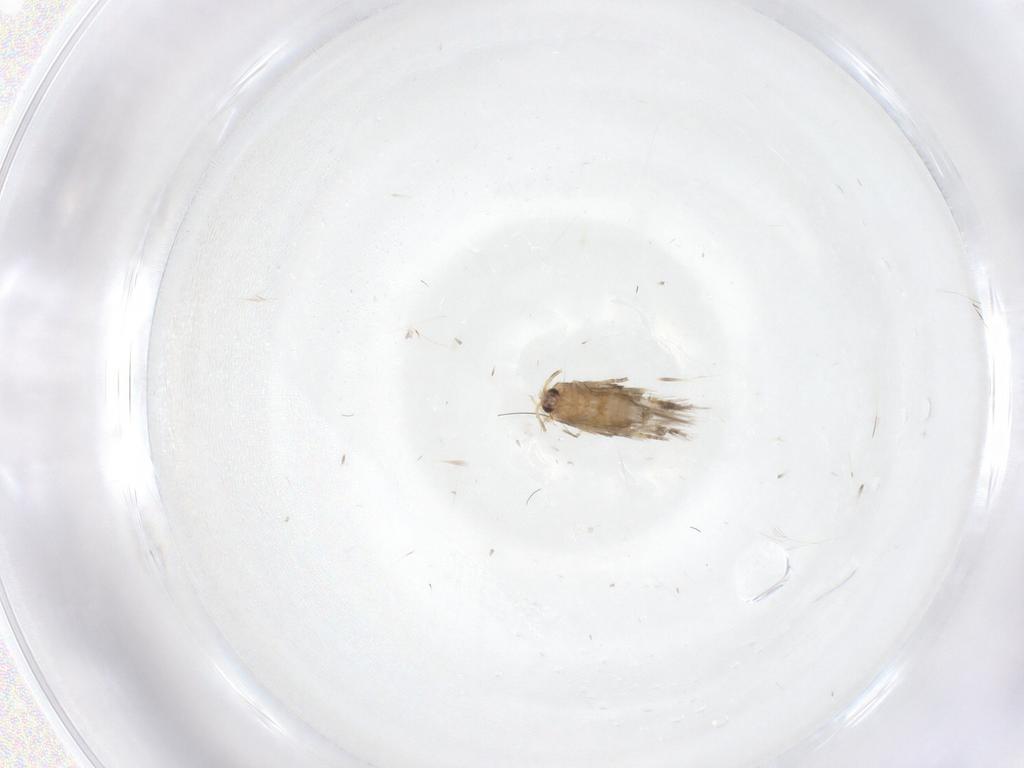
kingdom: Animalia
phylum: Arthropoda
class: Insecta
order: Lepidoptera
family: Nepticulidae
